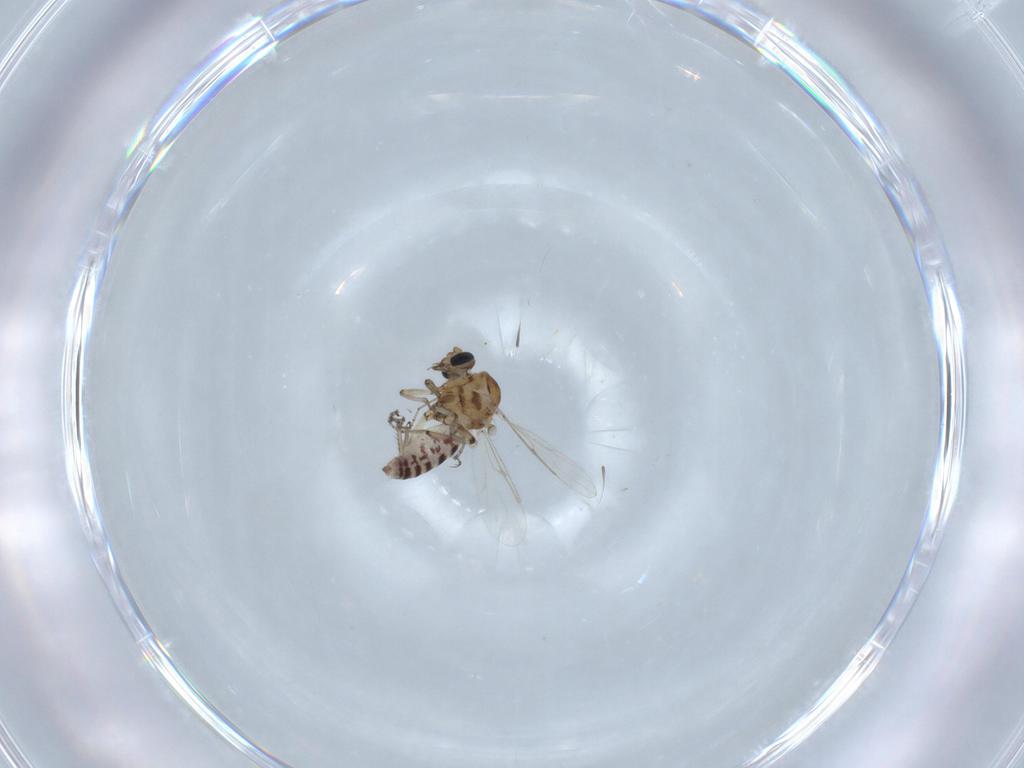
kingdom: Animalia
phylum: Arthropoda
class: Insecta
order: Diptera
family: Ceratopogonidae
